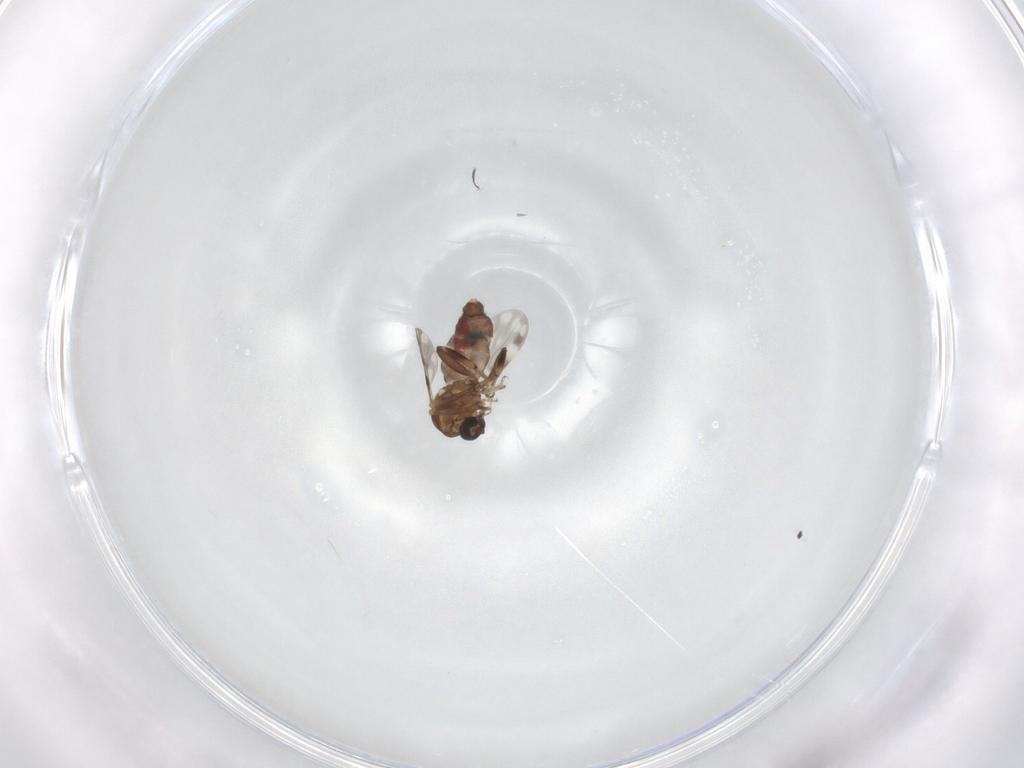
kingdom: Animalia
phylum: Arthropoda
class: Insecta
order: Diptera
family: Ceratopogonidae
